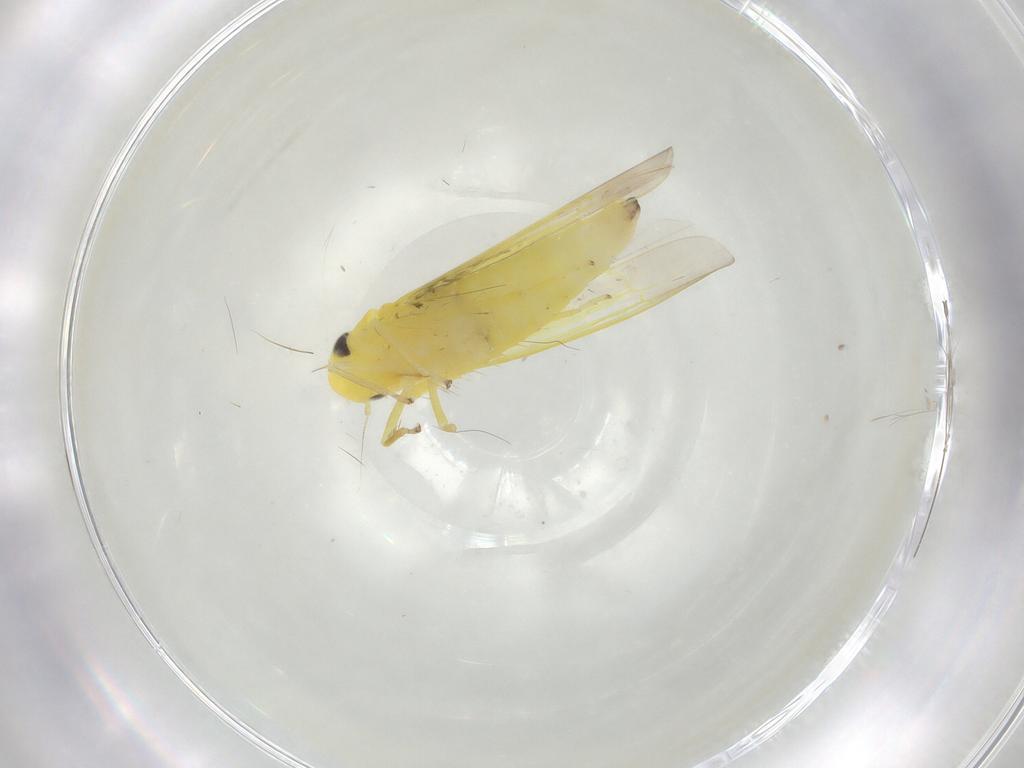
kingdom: Animalia
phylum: Arthropoda
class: Insecta
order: Hemiptera
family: Cicadellidae
